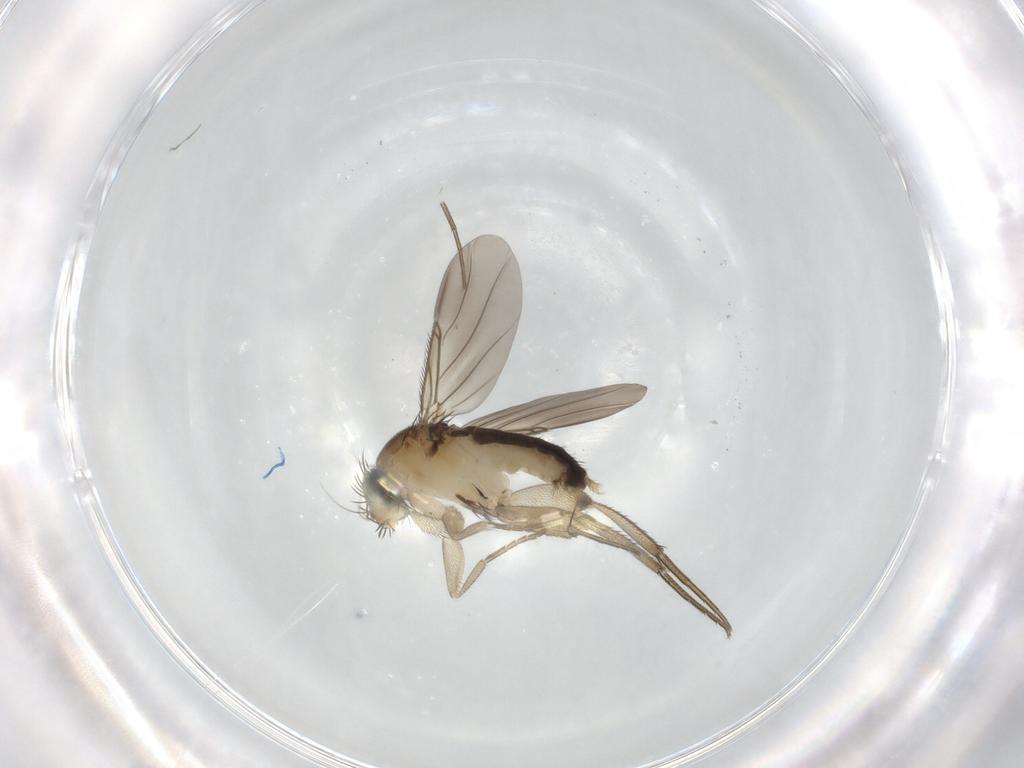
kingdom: Animalia
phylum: Arthropoda
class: Insecta
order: Diptera
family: Phoridae
